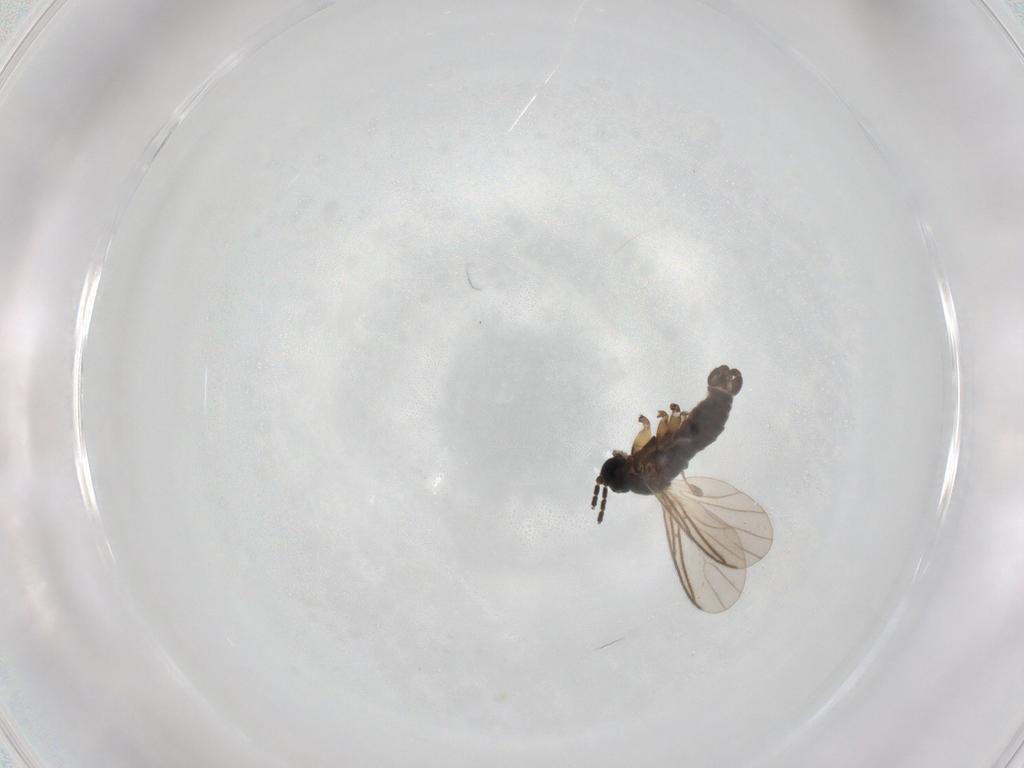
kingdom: Animalia
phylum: Arthropoda
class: Insecta
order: Diptera
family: Sciaridae
